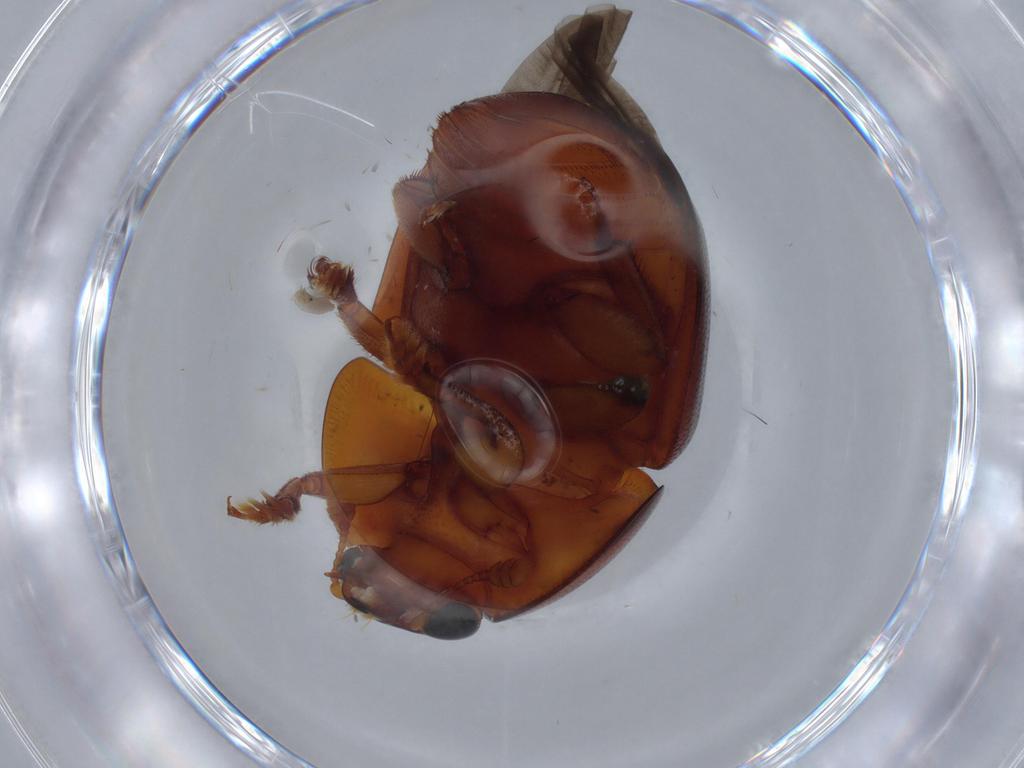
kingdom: Animalia
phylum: Arthropoda
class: Insecta
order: Coleoptera
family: Nitidulidae
